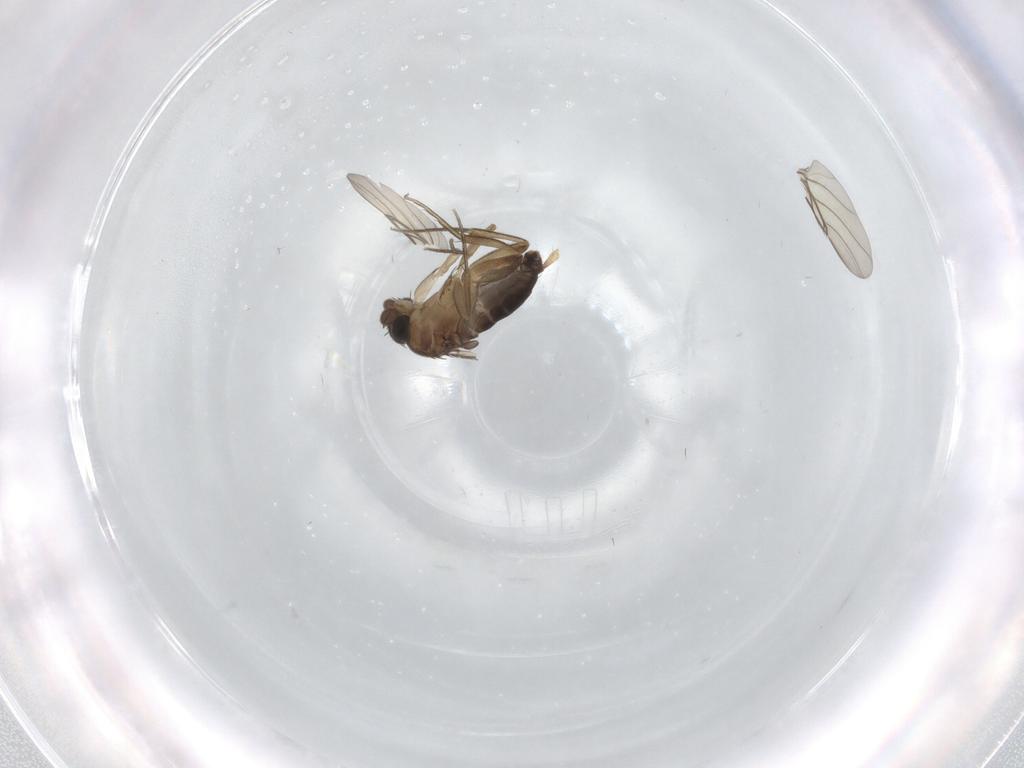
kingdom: Animalia
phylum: Arthropoda
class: Insecta
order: Diptera
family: Phoridae
